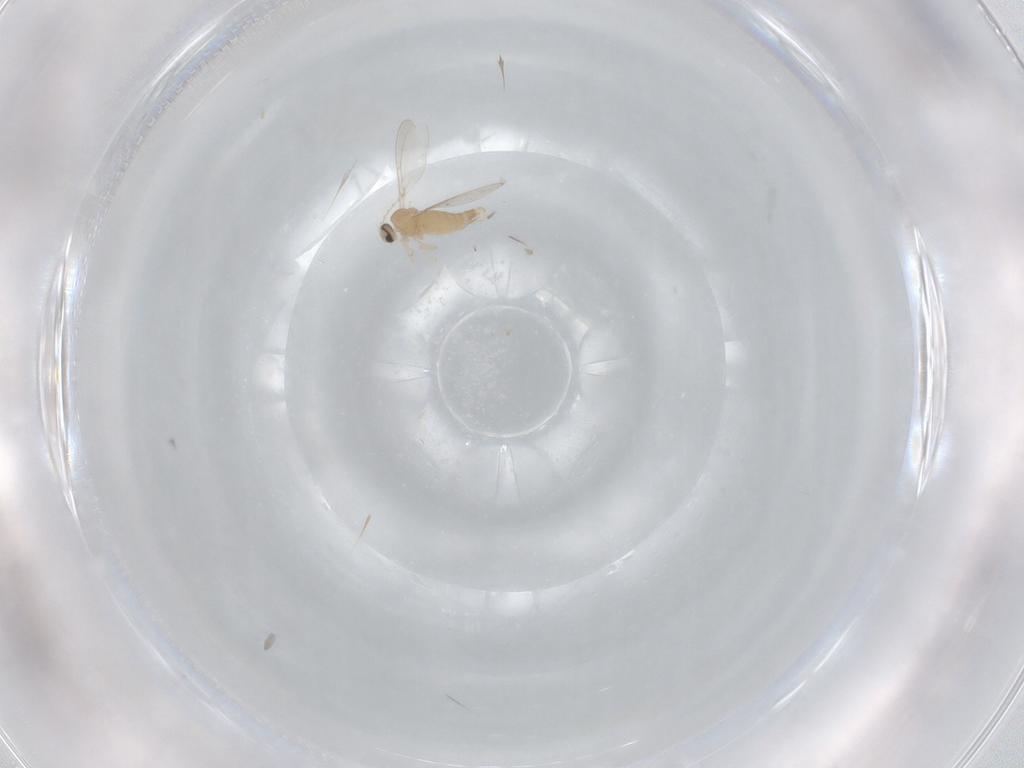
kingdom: Animalia
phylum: Arthropoda
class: Insecta
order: Diptera
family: Cecidomyiidae
